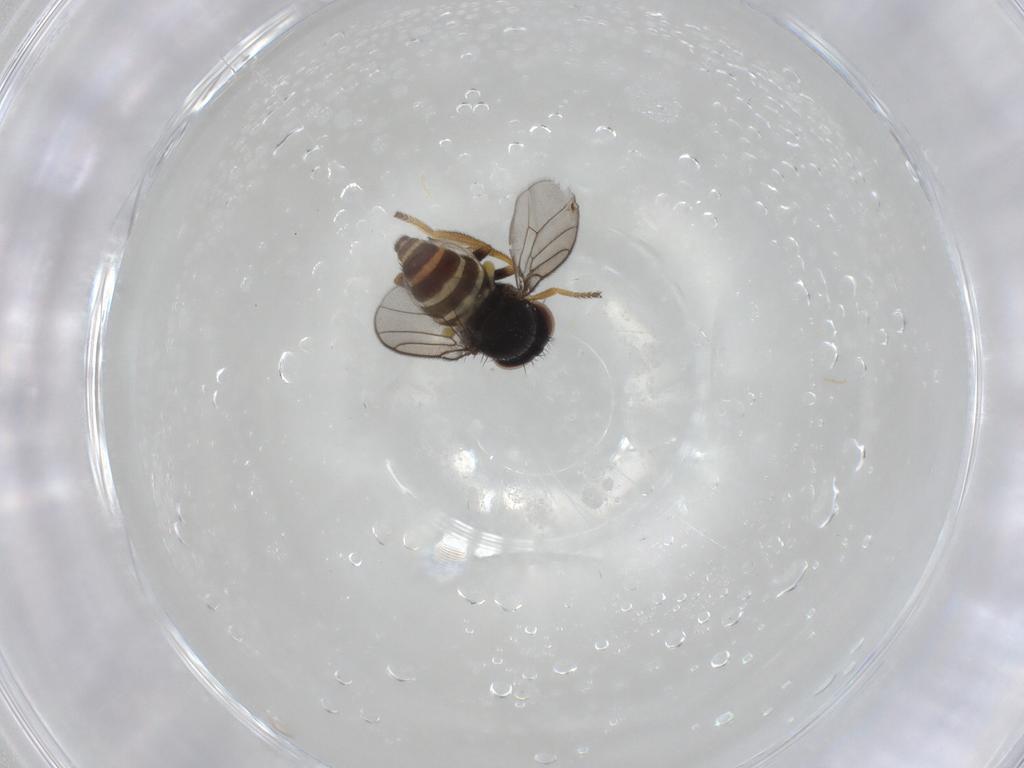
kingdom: Animalia
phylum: Arthropoda
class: Insecta
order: Diptera
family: Chloropidae
